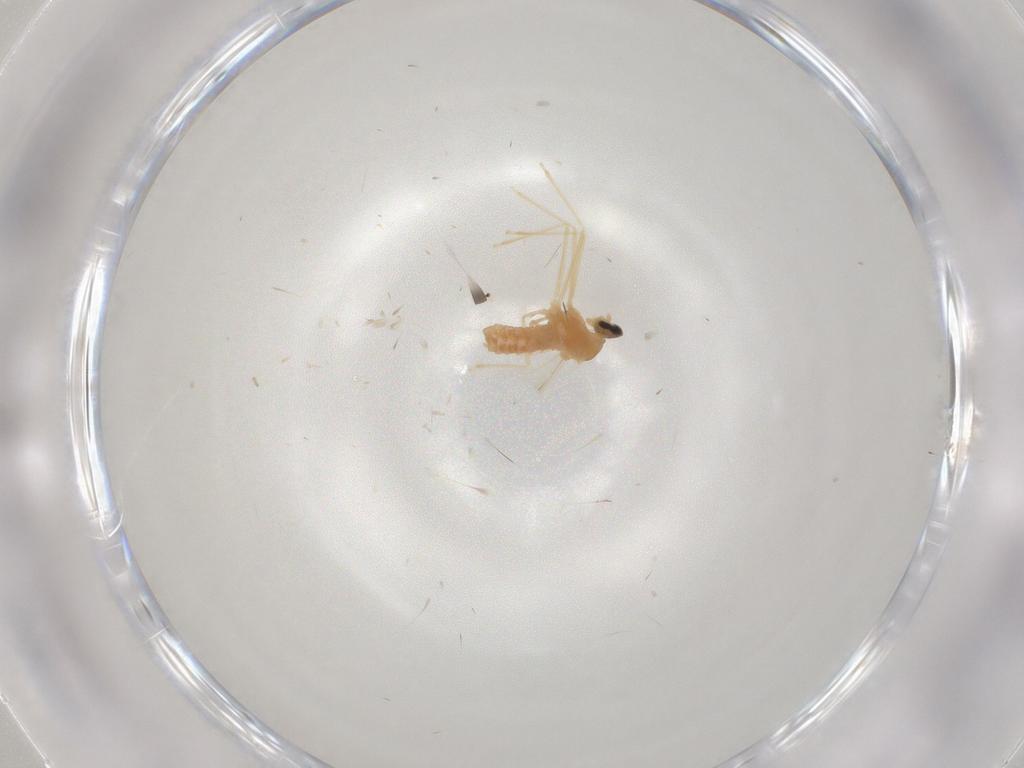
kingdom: Animalia
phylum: Arthropoda
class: Insecta
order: Diptera
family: Cecidomyiidae
